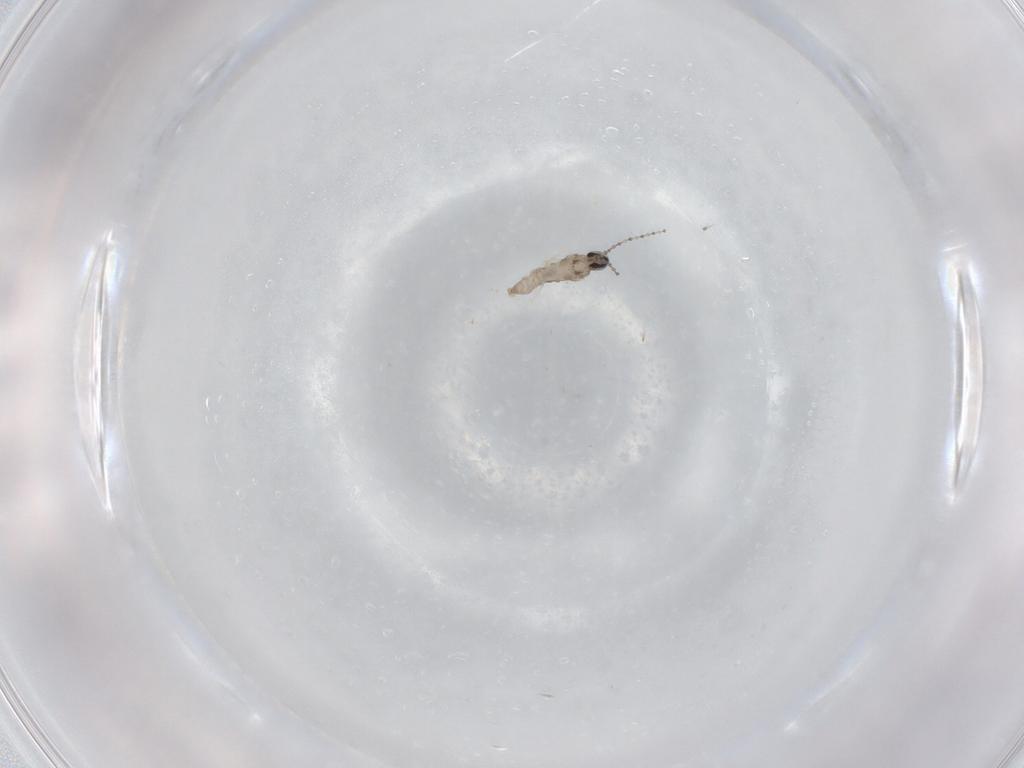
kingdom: Animalia
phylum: Arthropoda
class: Insecta
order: Diptera
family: Cecidomyiidae
